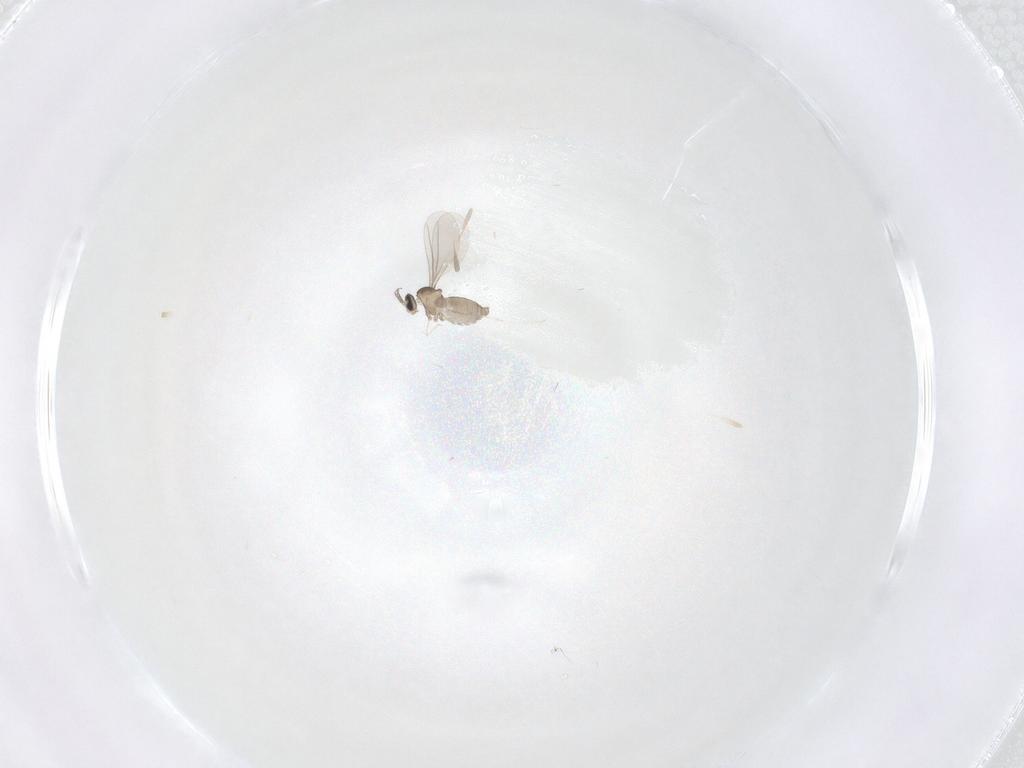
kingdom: Animalia
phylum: Arthropoda
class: Insecta
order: Diptera
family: Cecidomyiidae
